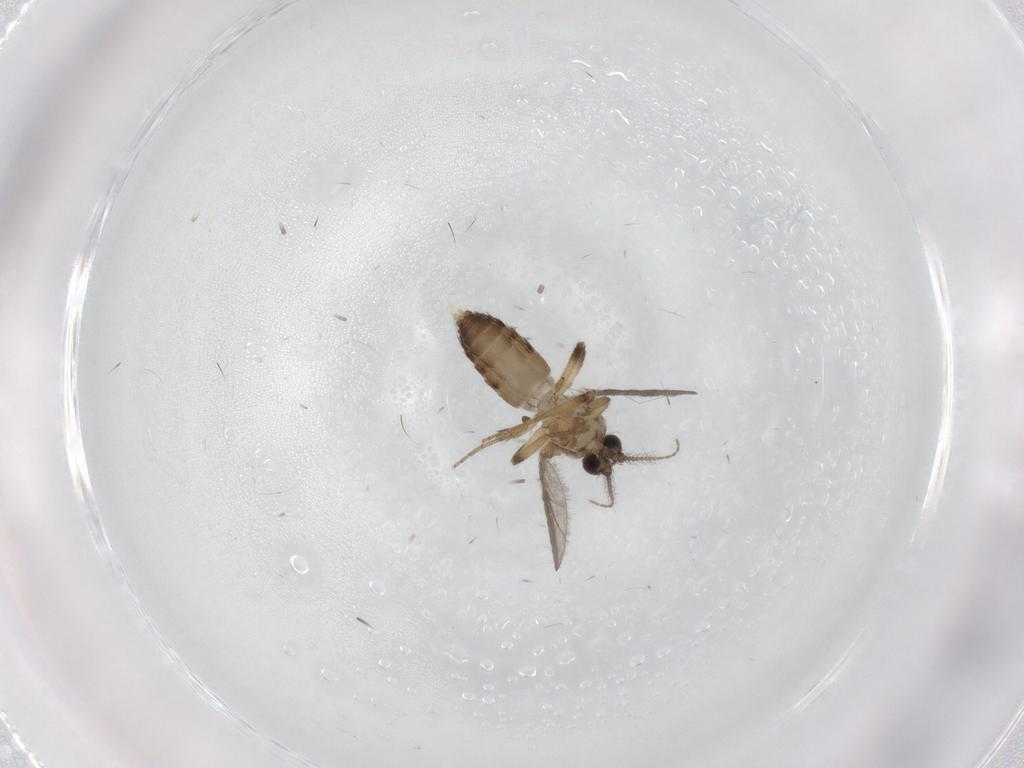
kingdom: Animalia
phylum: Arthropoda
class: Insecta
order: Diptera
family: Ceratopogonidae
